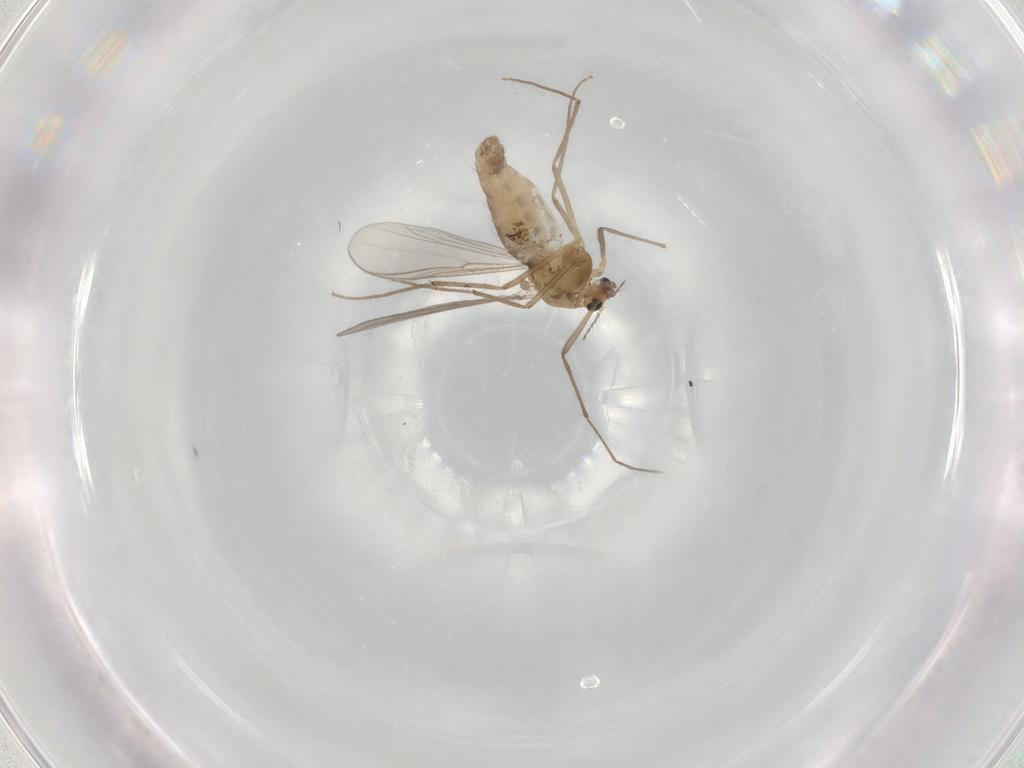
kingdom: Animalia
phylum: Arthropoda
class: Insecta
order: Diptera
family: Chironomidae
